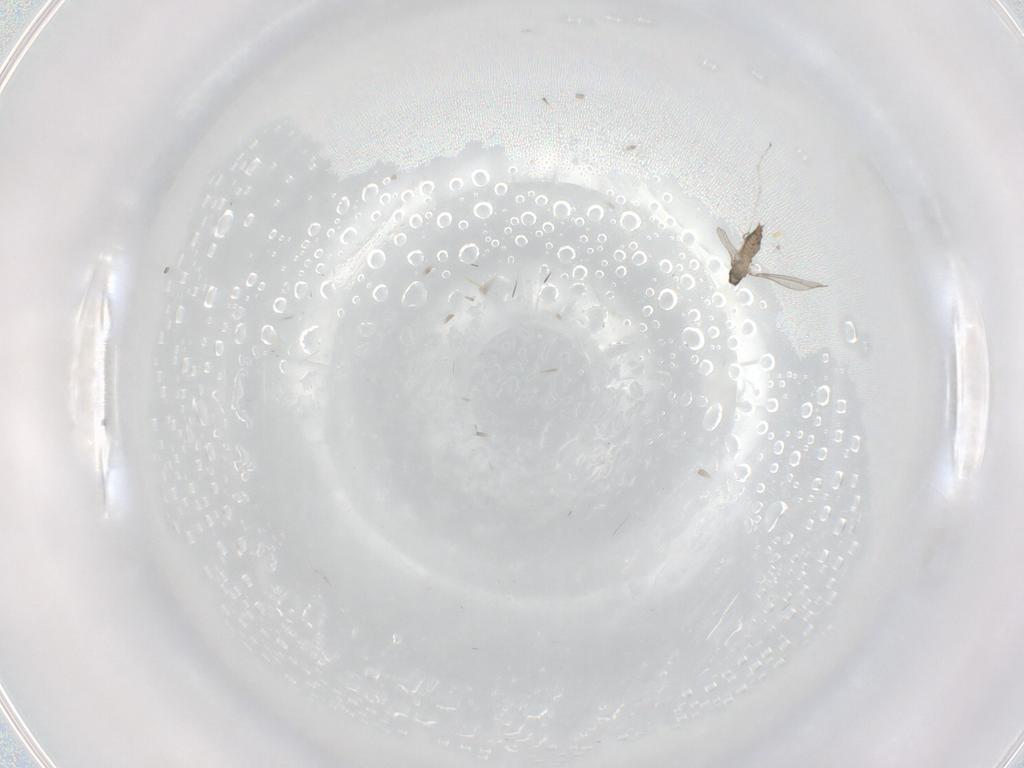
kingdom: Animalia
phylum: Arthropoda
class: Insecta
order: Diptera
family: Cecidomyiidae
